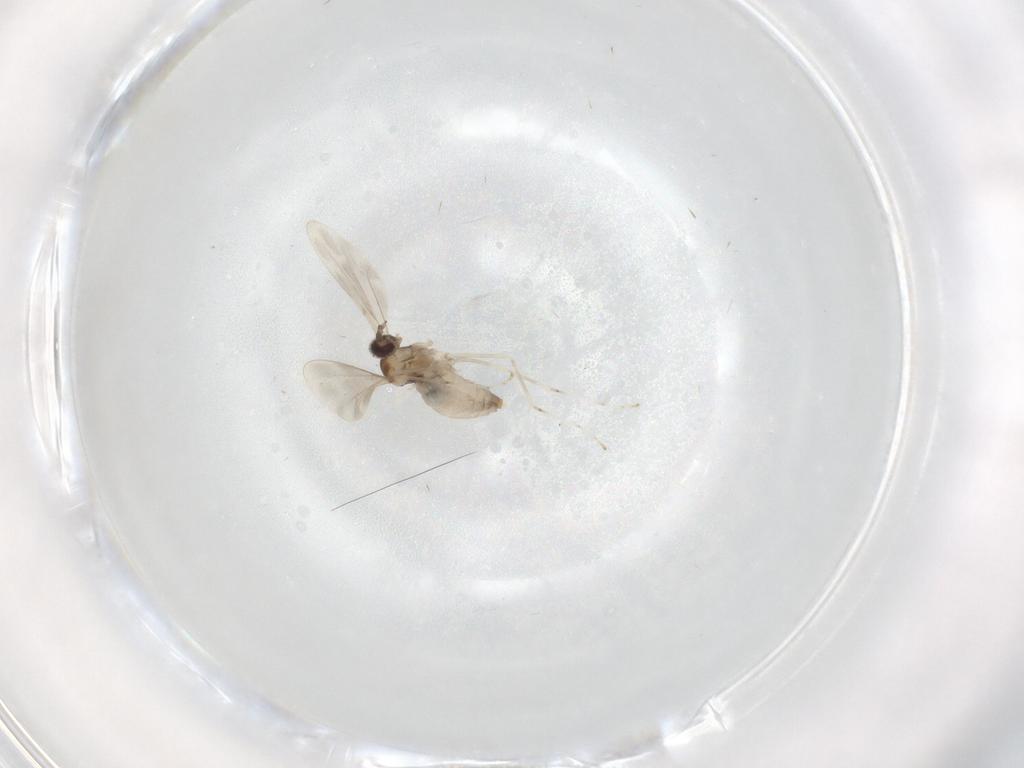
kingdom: Animalia
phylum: Arthropoda
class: Insecta
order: Diptera
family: Cecidomyiidae
